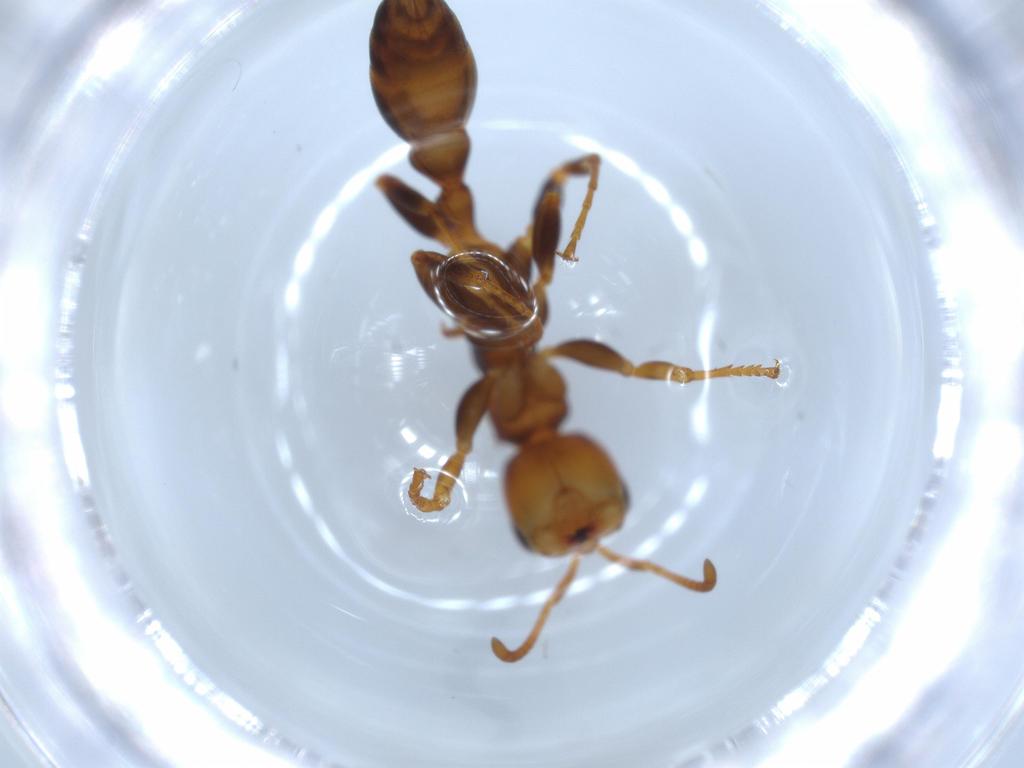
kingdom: Animalia
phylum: Arthropoda
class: Insecta
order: Hymenoptera
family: Formicidae
